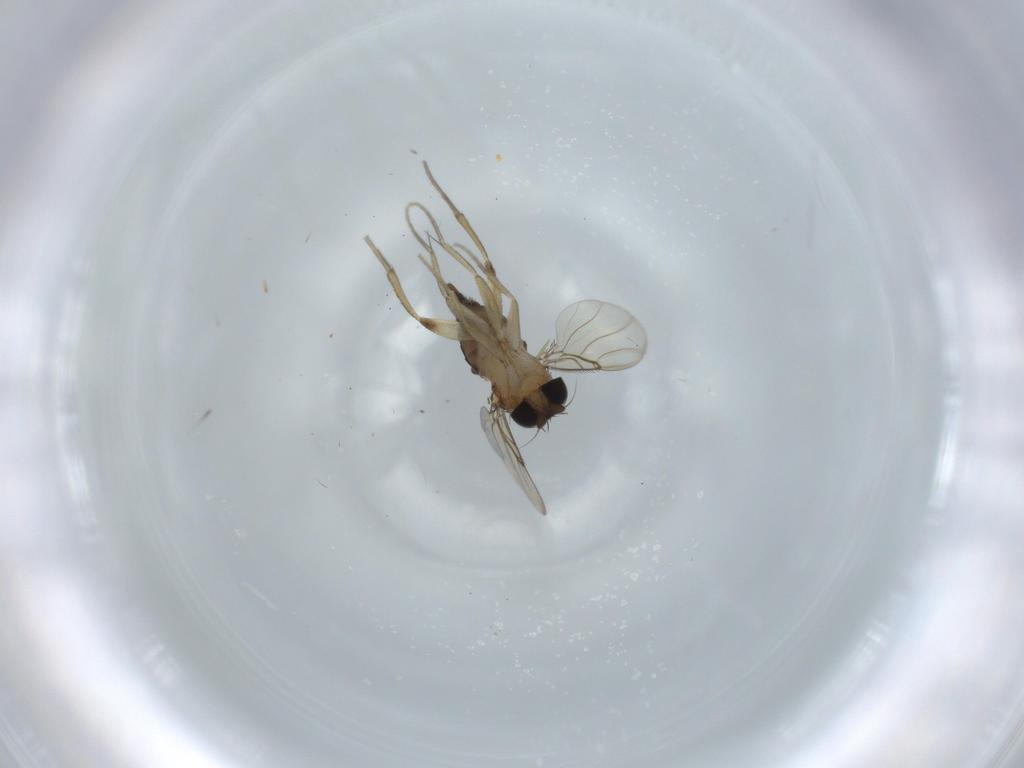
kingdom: Animalia
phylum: Arthropoda
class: Insecta
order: Diptera
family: Phoridae
